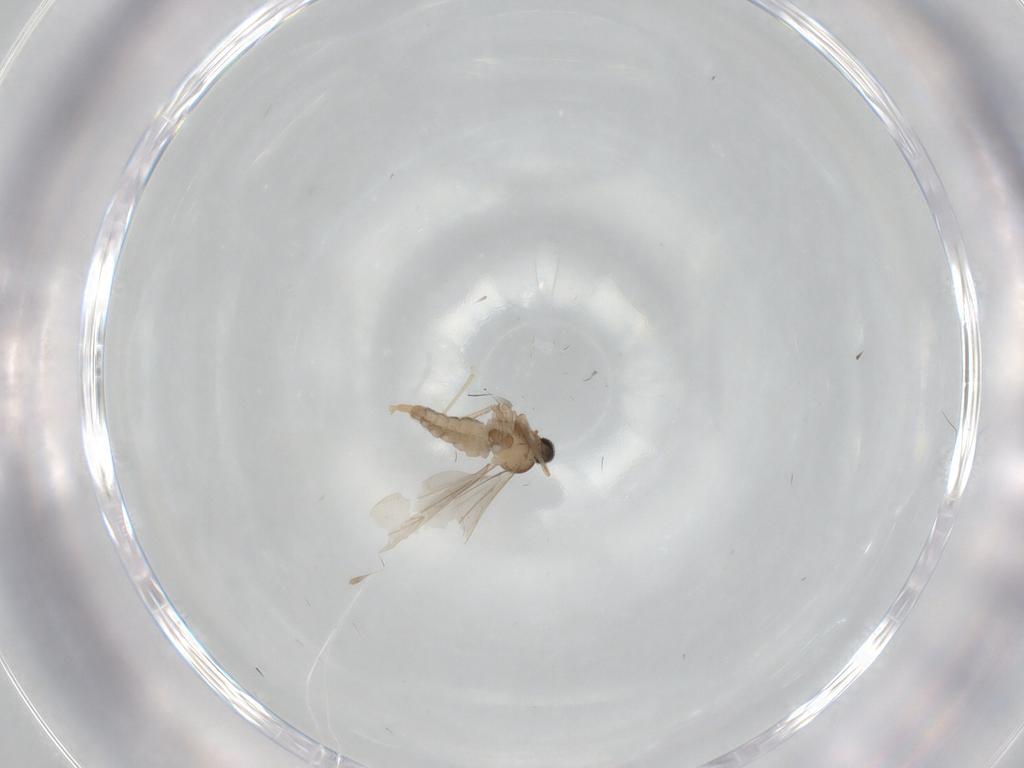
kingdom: Animalia
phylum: Arthropoda
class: Insecta
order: Diptera
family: Cecidomyiidae
